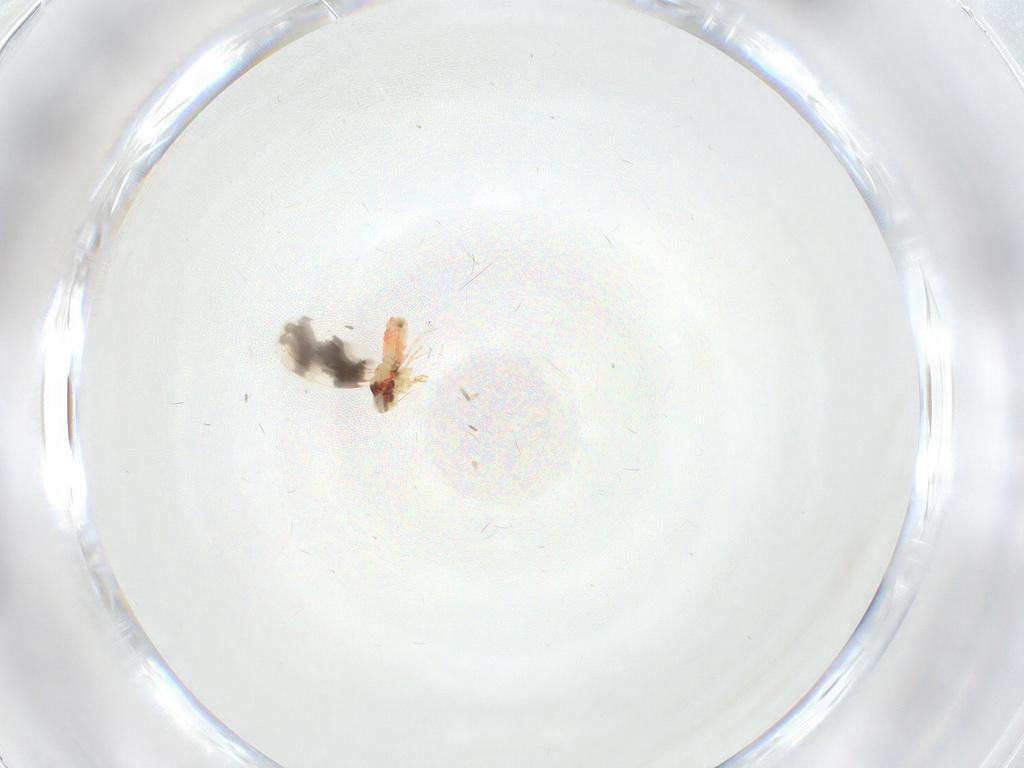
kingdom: Animalia
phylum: Arthropoda
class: Insecta
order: Hemiptera
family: Aleyrodidae
